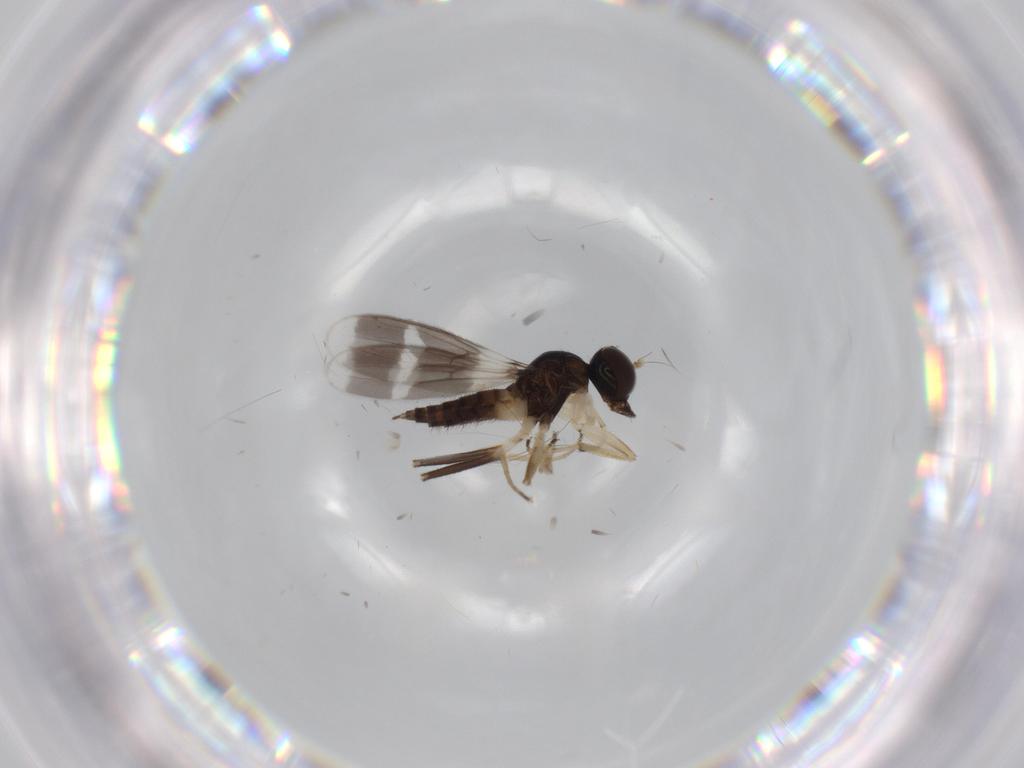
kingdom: Animalia
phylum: Arthropoda
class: Insecta
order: Diptera
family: Hybotidae
